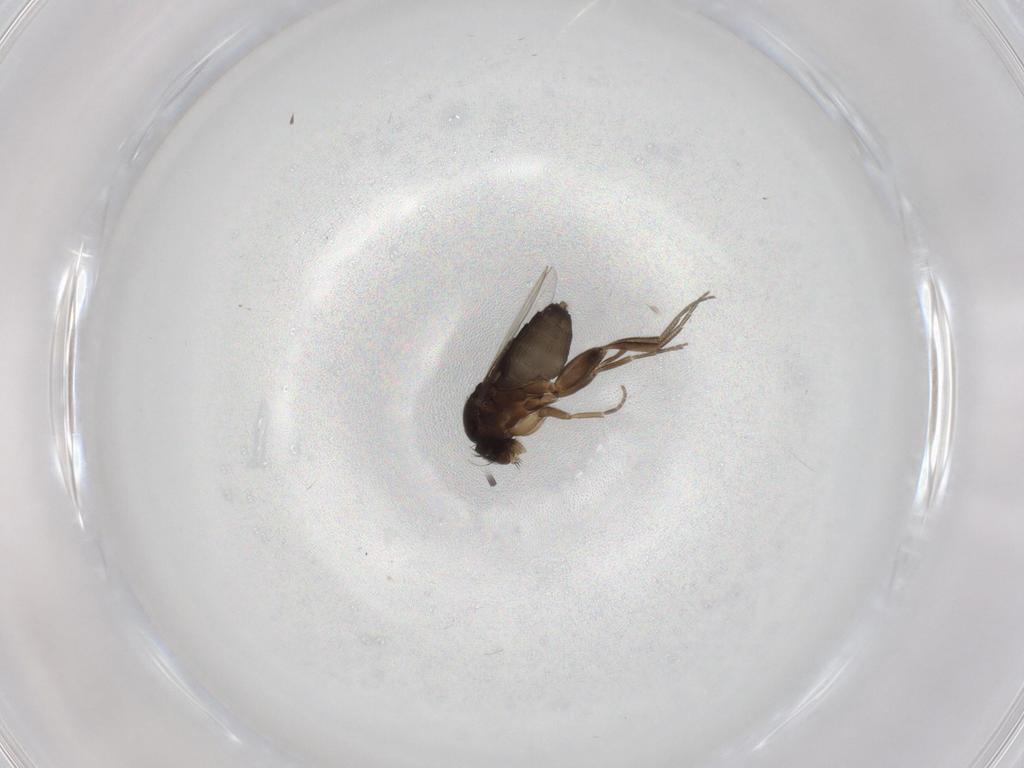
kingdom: Animalia
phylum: Arthropoda
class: Insecta
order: Diptera
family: Phoridae
